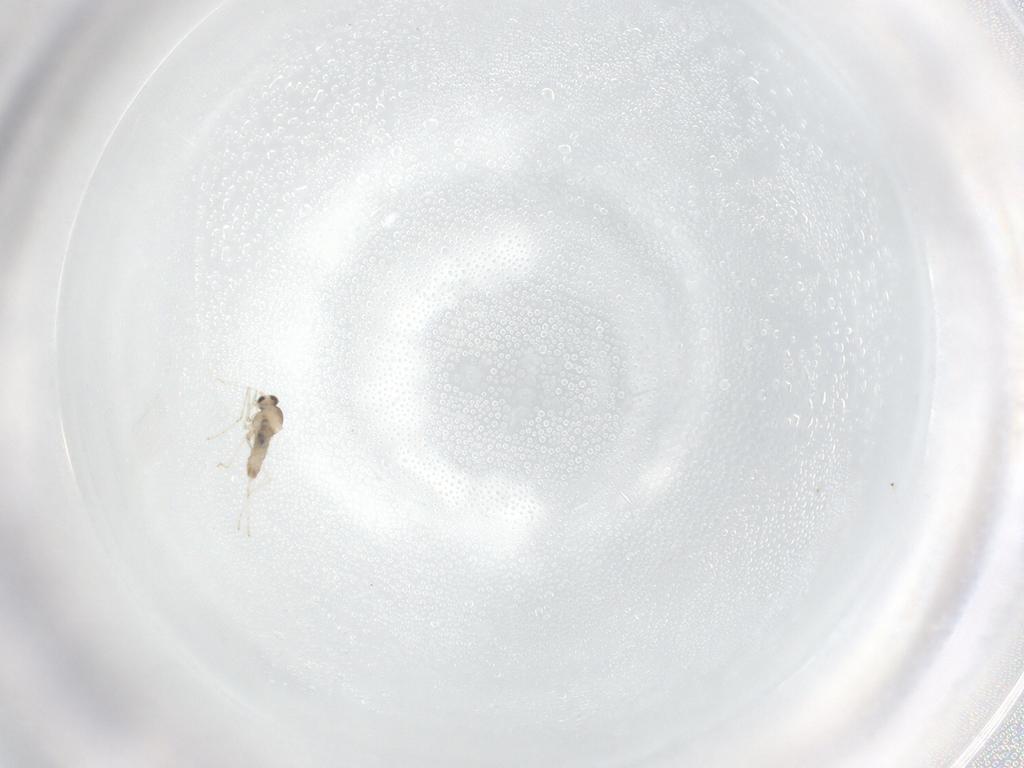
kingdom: Animalia
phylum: Arthropoda
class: Insecta
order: Diptera
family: Cecidomyiidae
